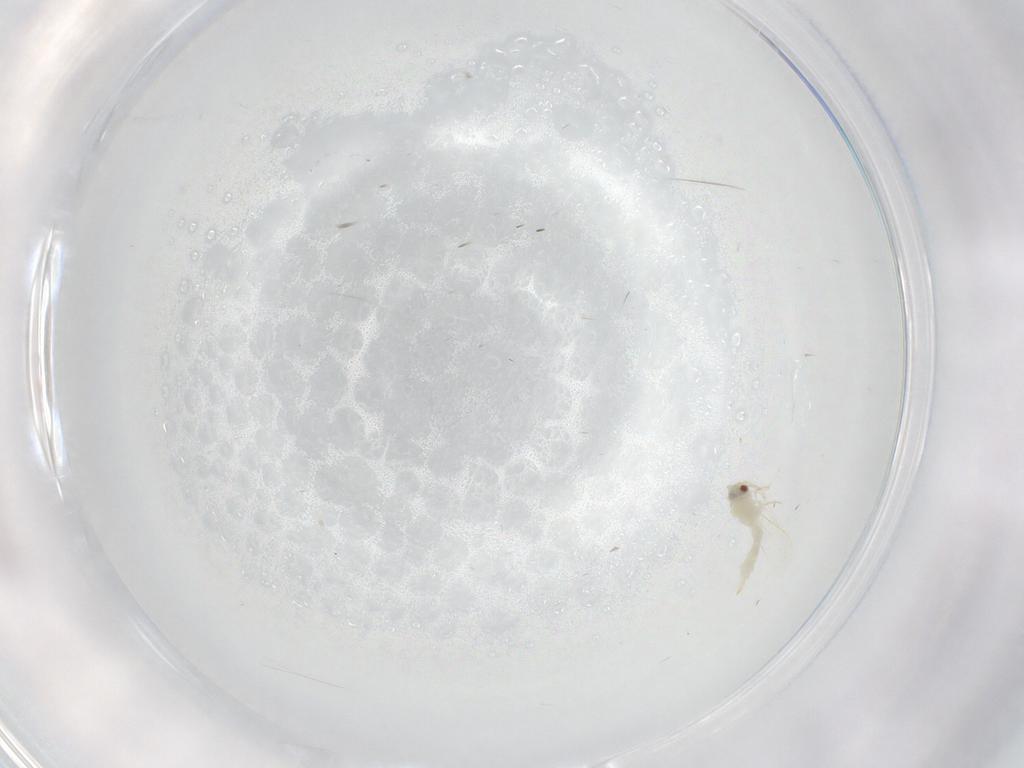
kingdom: Animalia
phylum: Arthropoda
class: Insecta
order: Hemiptera
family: Aleyrodidae
